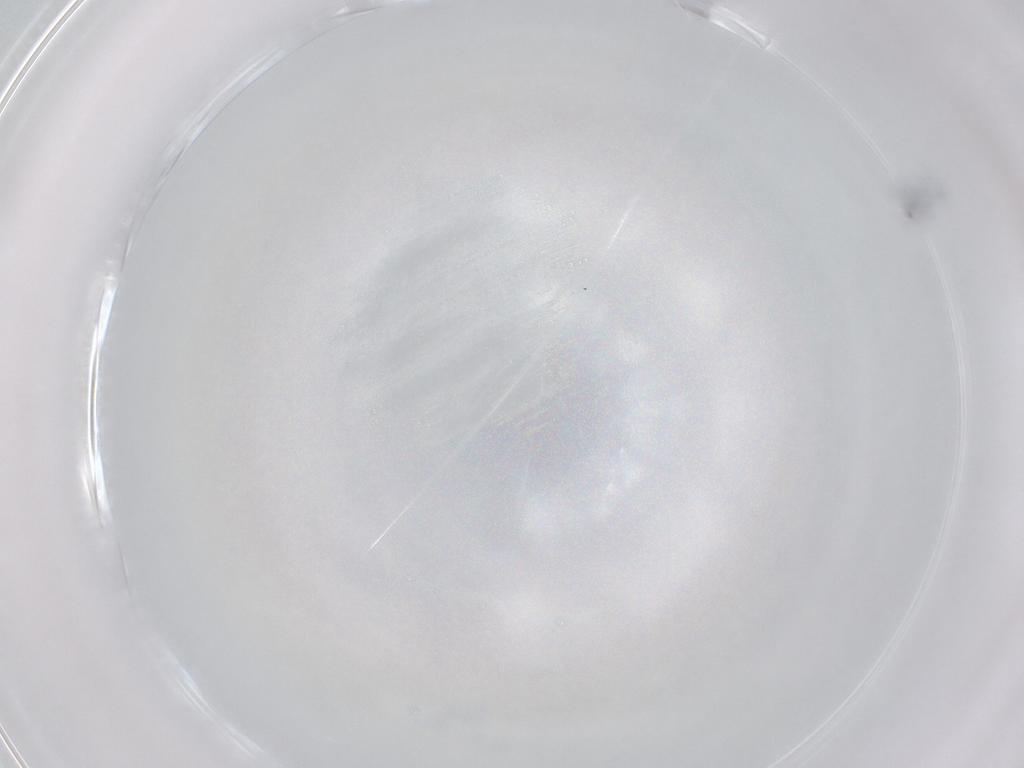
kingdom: Animalia
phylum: Arthropoda
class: Collembola
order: Entomobryomorpha
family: Entomobryidae
